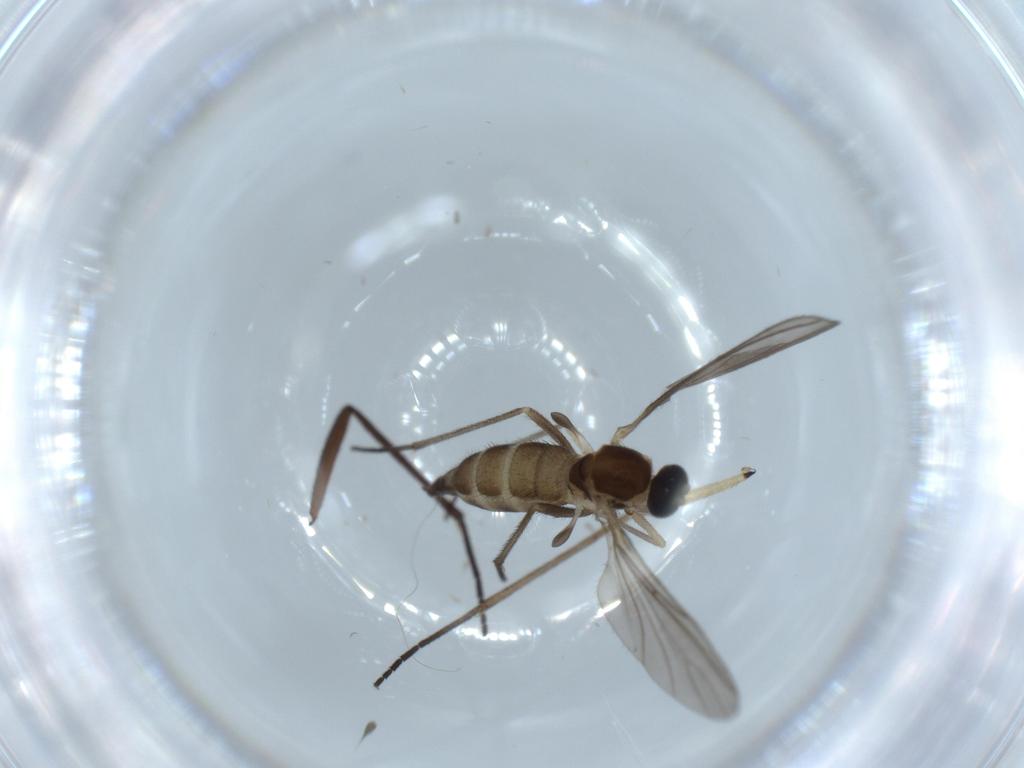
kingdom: Animalia
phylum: Arthropoda
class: Insecta
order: Diptera
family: Sciaridae
